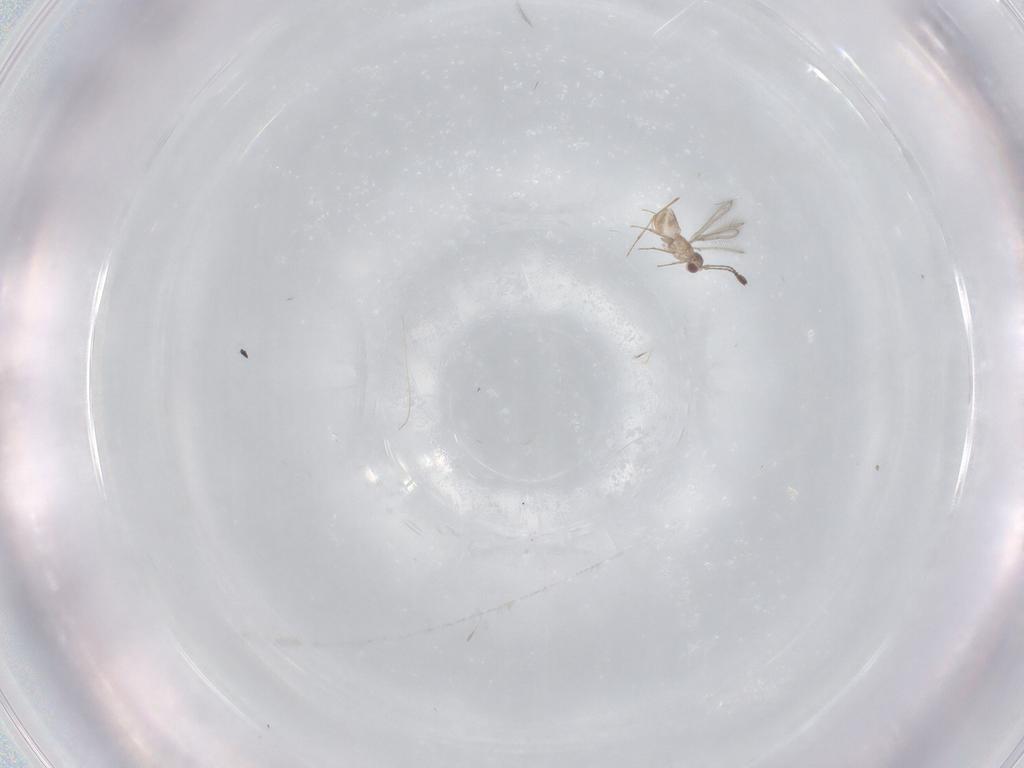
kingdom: Animalia
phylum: Arthropoda
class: Insecta
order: Hymenoptera
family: Mymaridae
